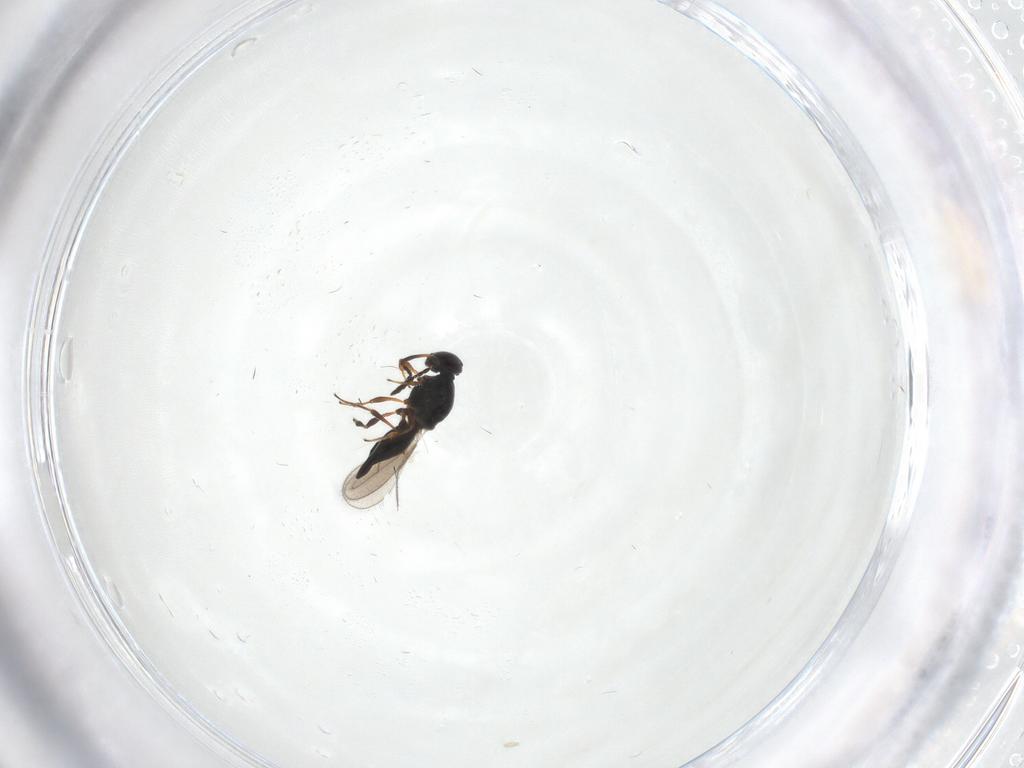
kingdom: Animalia
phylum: Arthropoda
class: Insecta
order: Hymenoptera
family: Platygastridae
